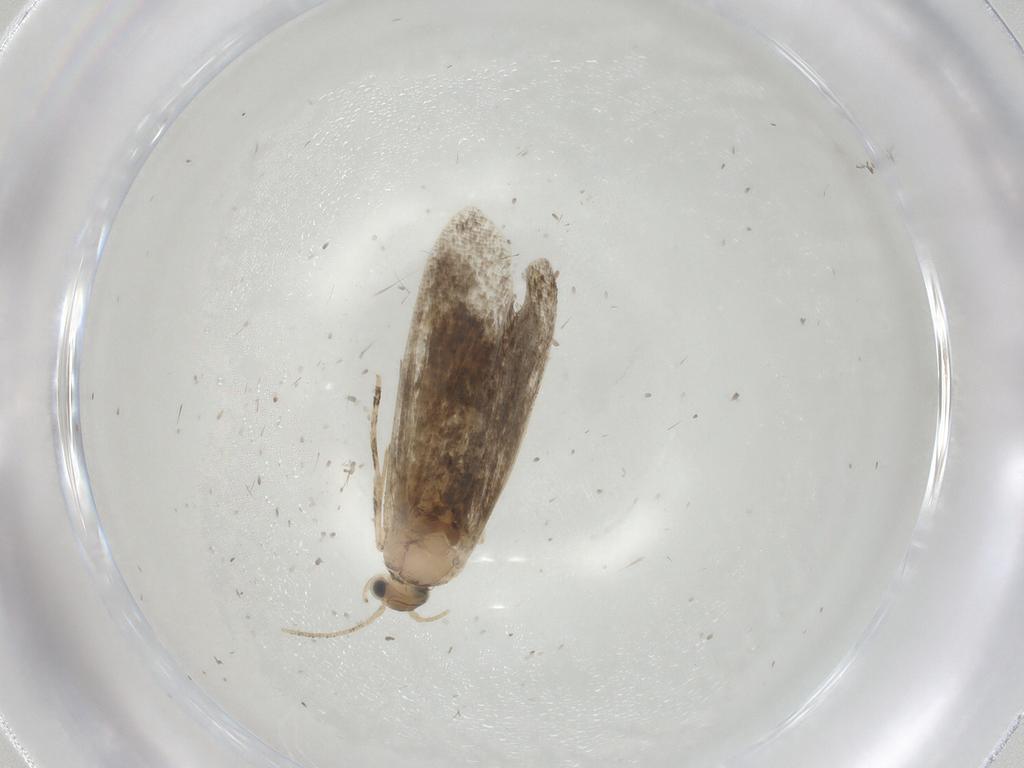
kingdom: Animalia
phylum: Arthropoda
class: Insecta
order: Lepidoptera
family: Tineidae
